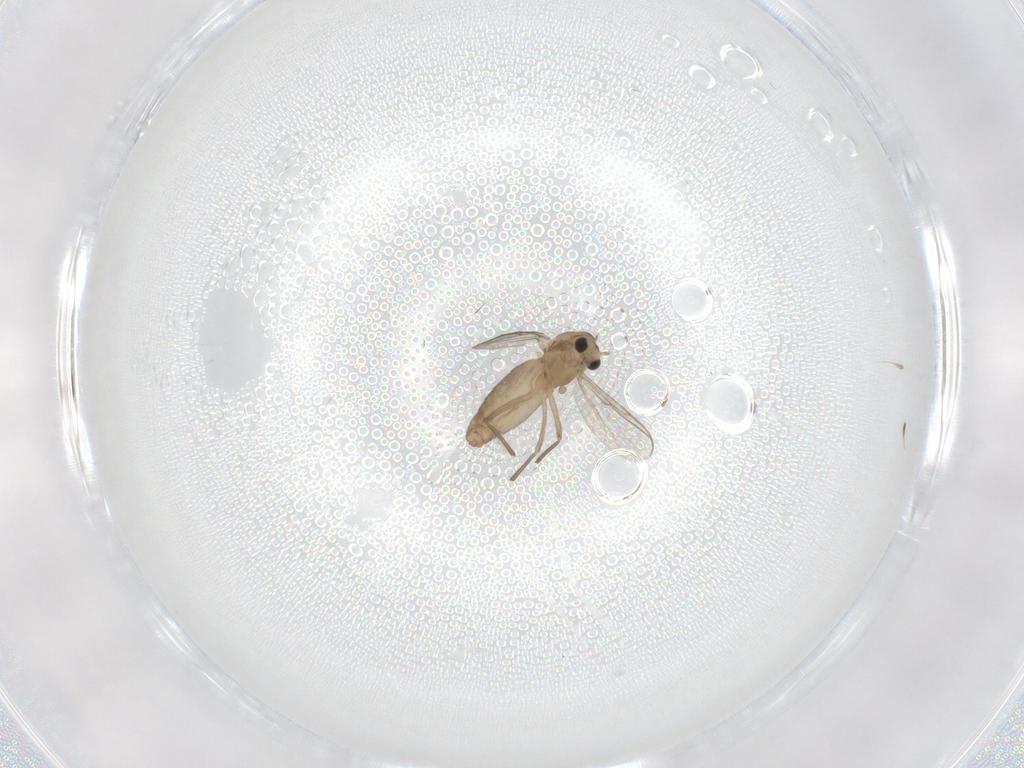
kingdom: Animalia
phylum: Arthropoda
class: Insecta
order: Diptera
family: Chironomidae
